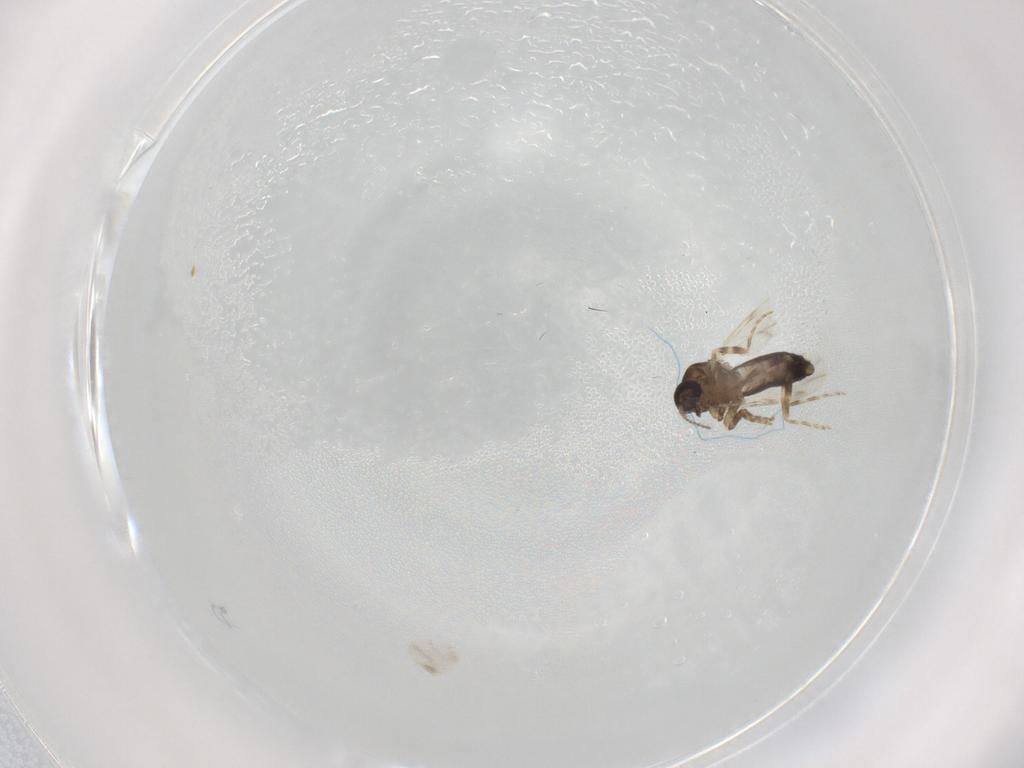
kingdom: Animalia
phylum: Arthropoda
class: Insecta
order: Diptera
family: Ceratopogonidae
